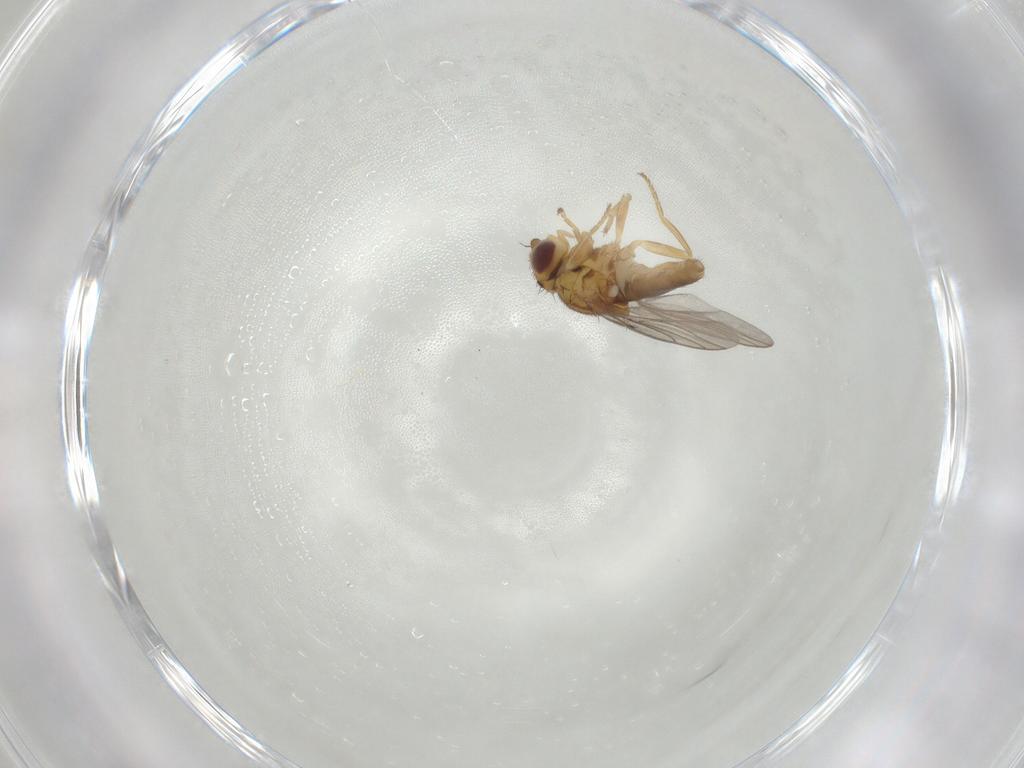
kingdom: Animalia
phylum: Arthropoda
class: Insecta
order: Diptera
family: Chloropidae
